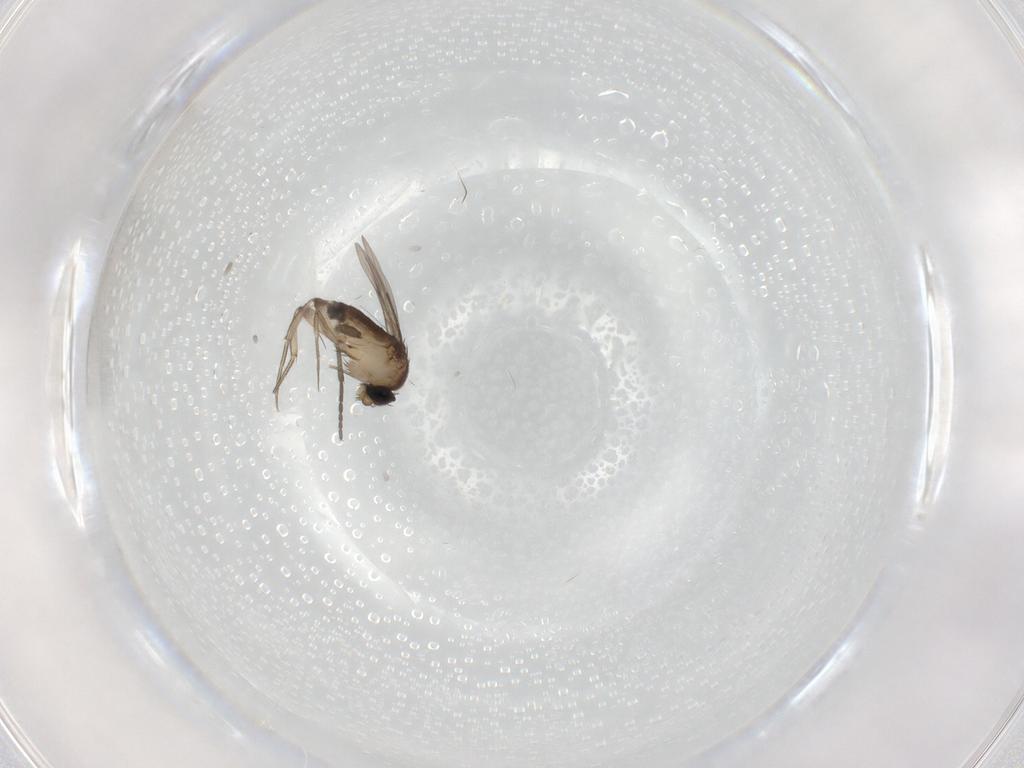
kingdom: Animalia
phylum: Arthropoda
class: Insecta
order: Diptera
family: Phoridae
